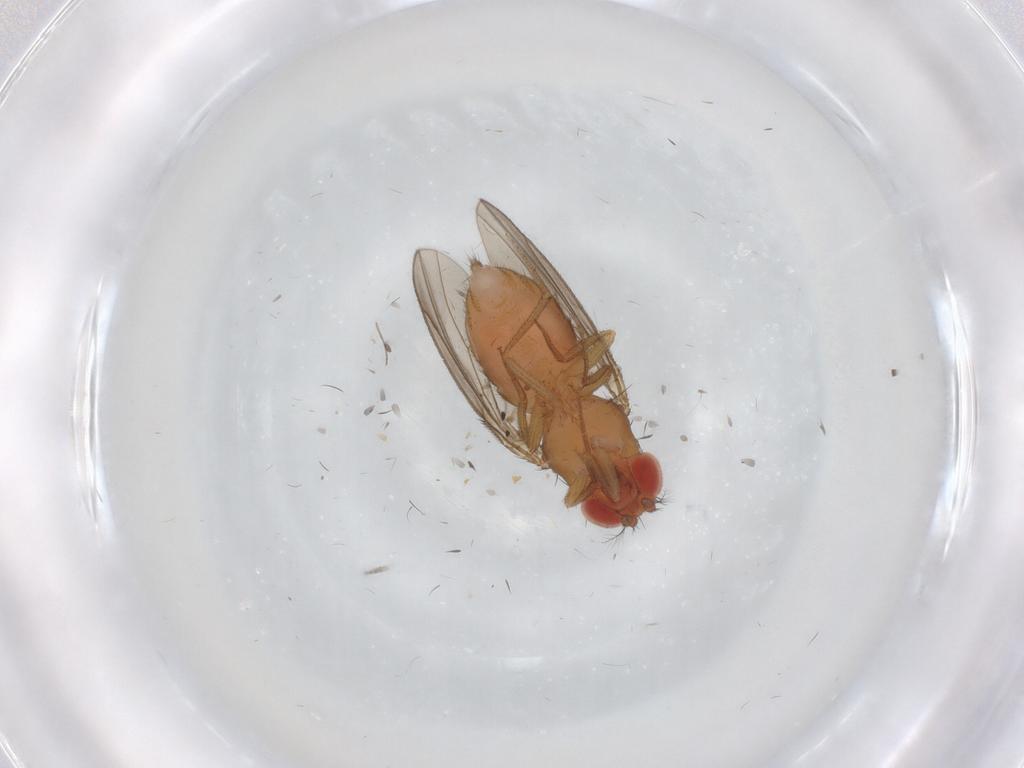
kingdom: Animalia
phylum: Arthropoda
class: Insecta
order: Diptera
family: Drosophilidae
